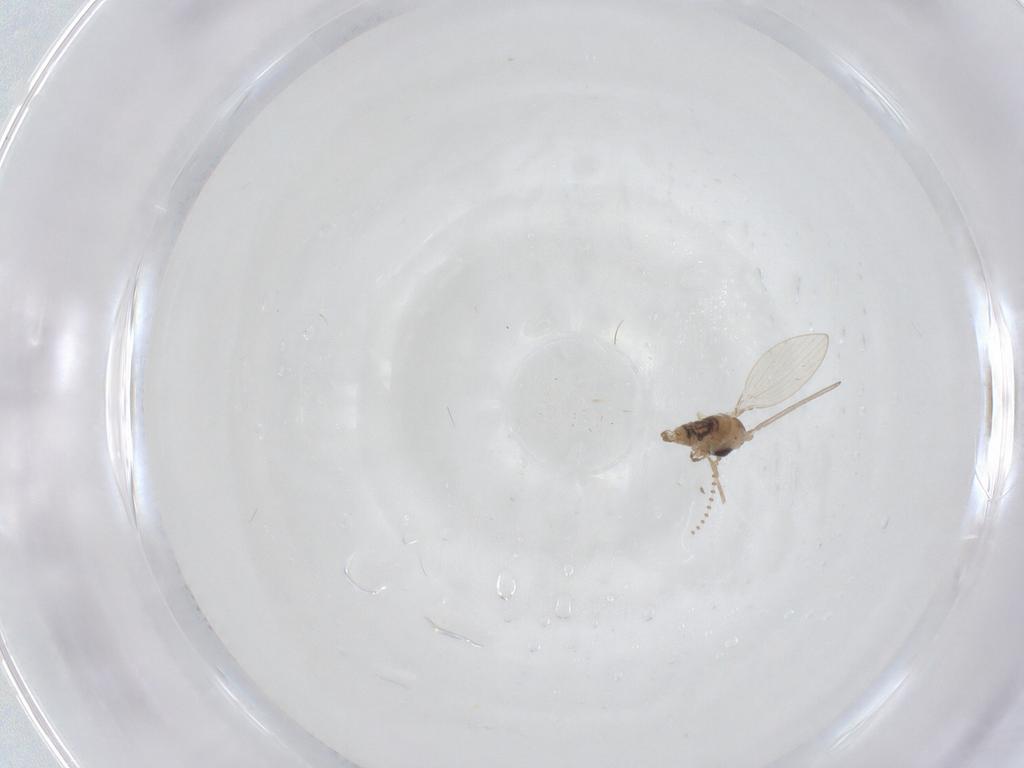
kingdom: Animalia
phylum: Arthropoda
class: Insecta
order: Diptera
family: Psychodidae
